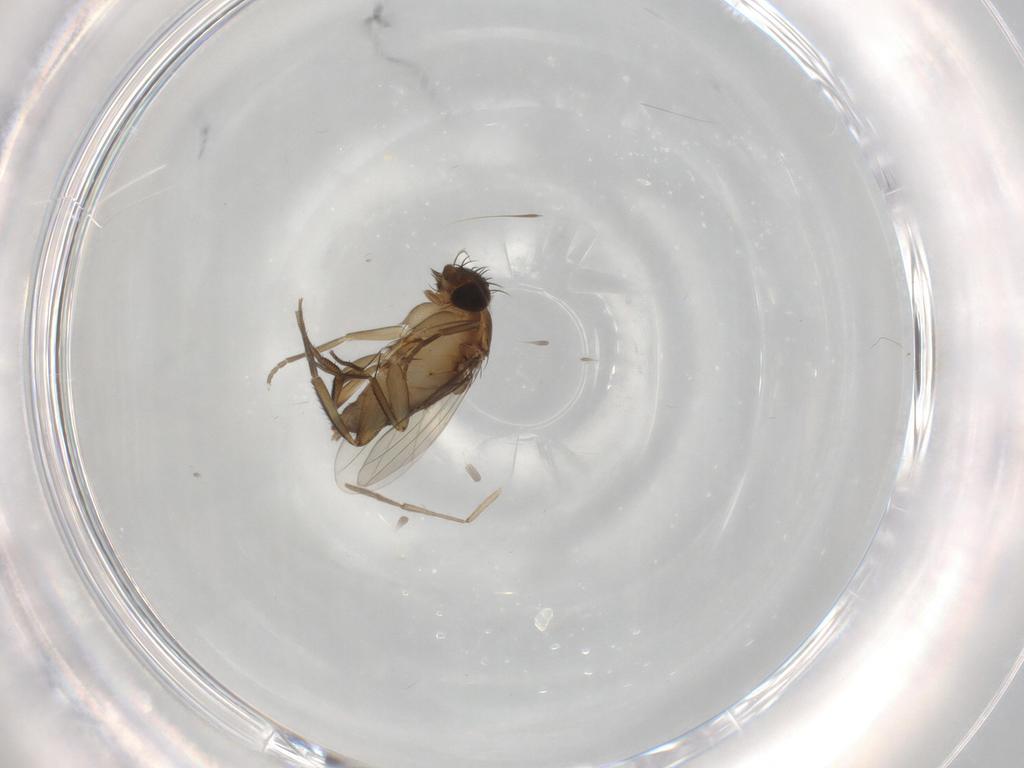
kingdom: Animalia
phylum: Arthropoda
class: Insecta
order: Diptera
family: Phoridae
